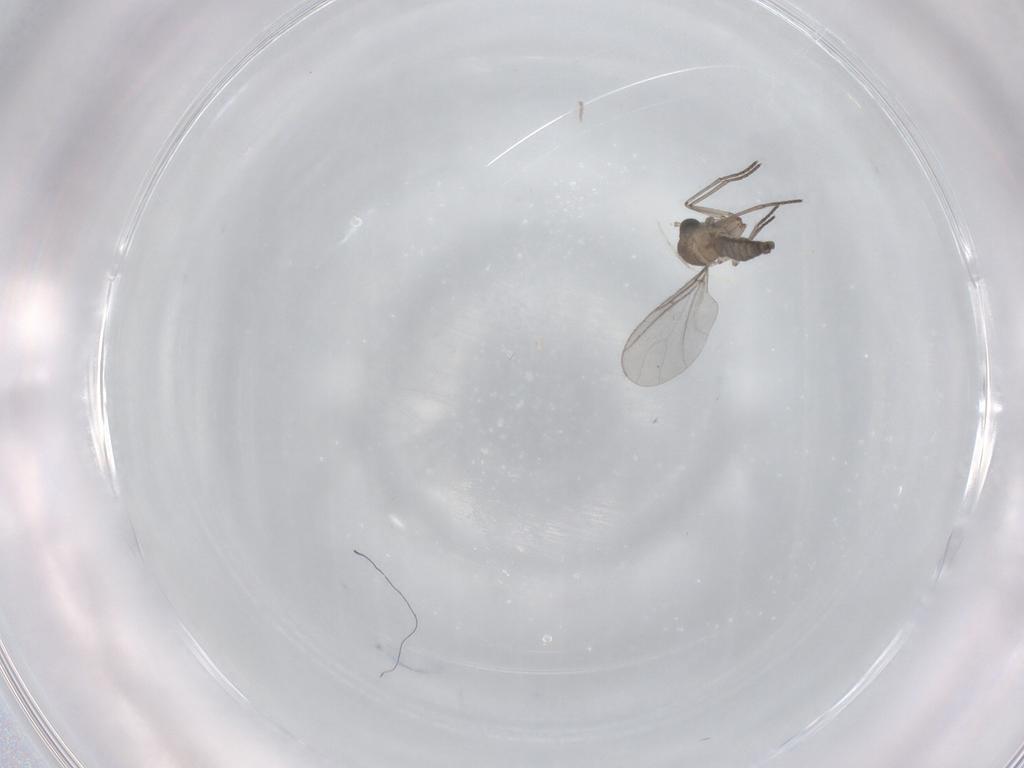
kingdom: Animalia
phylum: Arthropoda
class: Insecta
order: Diptera
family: Cecidomyiidae
